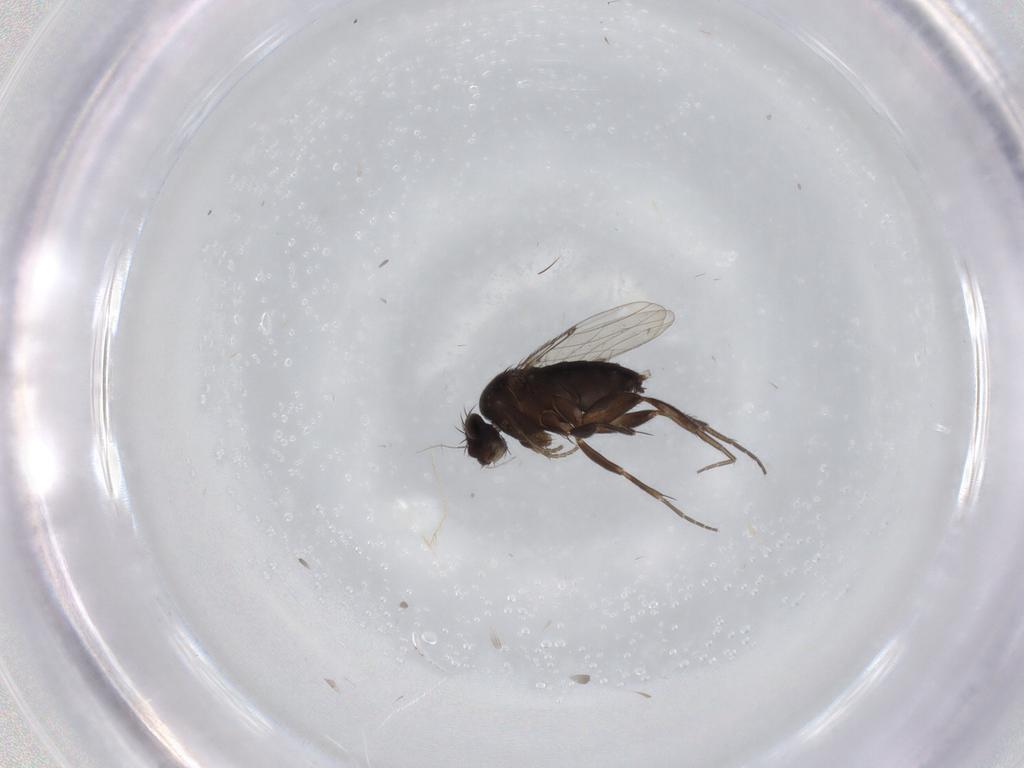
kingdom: Animalia
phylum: Arthropoda
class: Insecta
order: Diptera
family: Phoridae
